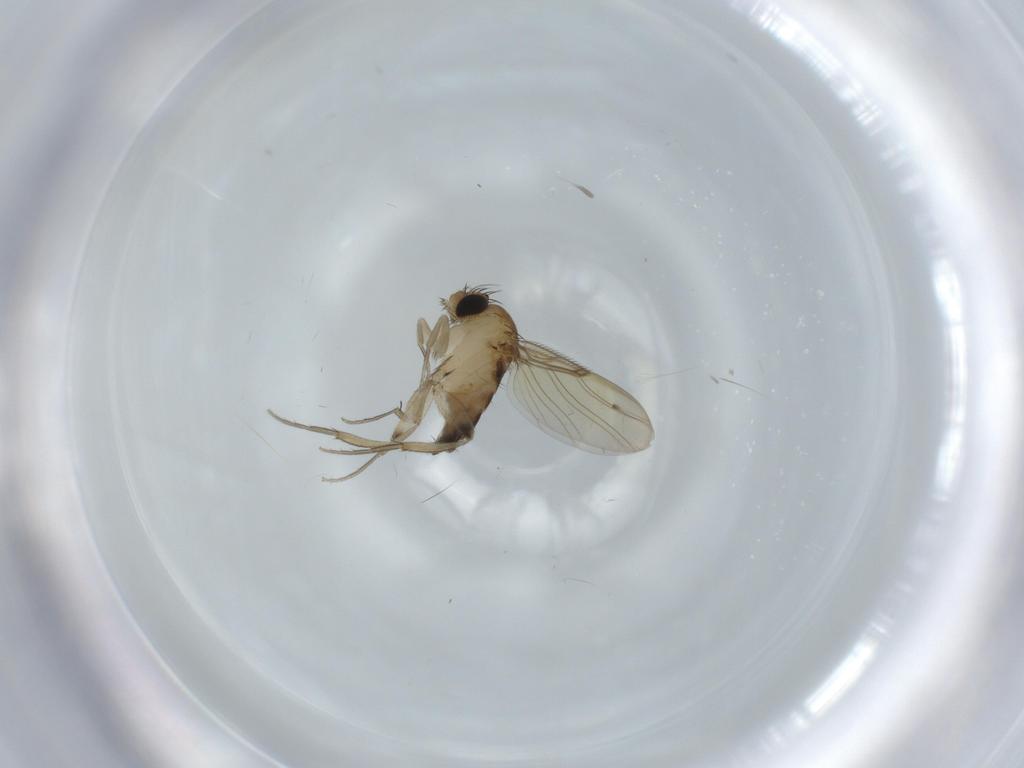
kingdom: Animalia
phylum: Arthropoda
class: Insecta
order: Diptera
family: Phoridae
